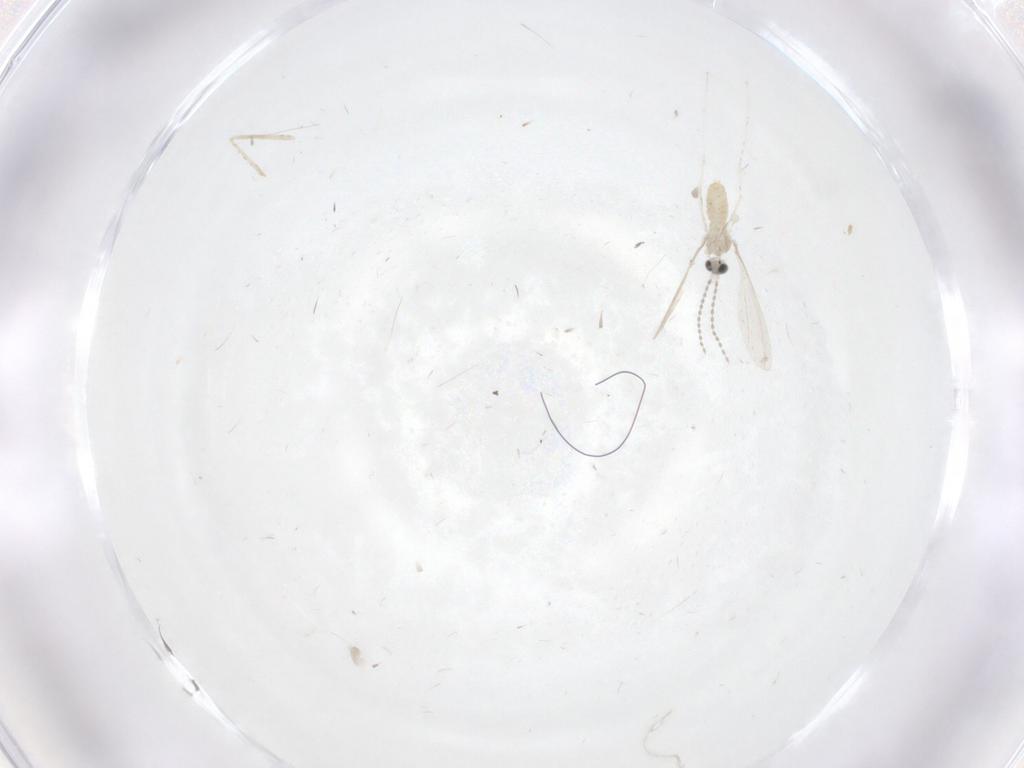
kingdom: Animalia
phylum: Arthropoda
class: Insecta
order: Diptera
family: Cecidomyiidae
